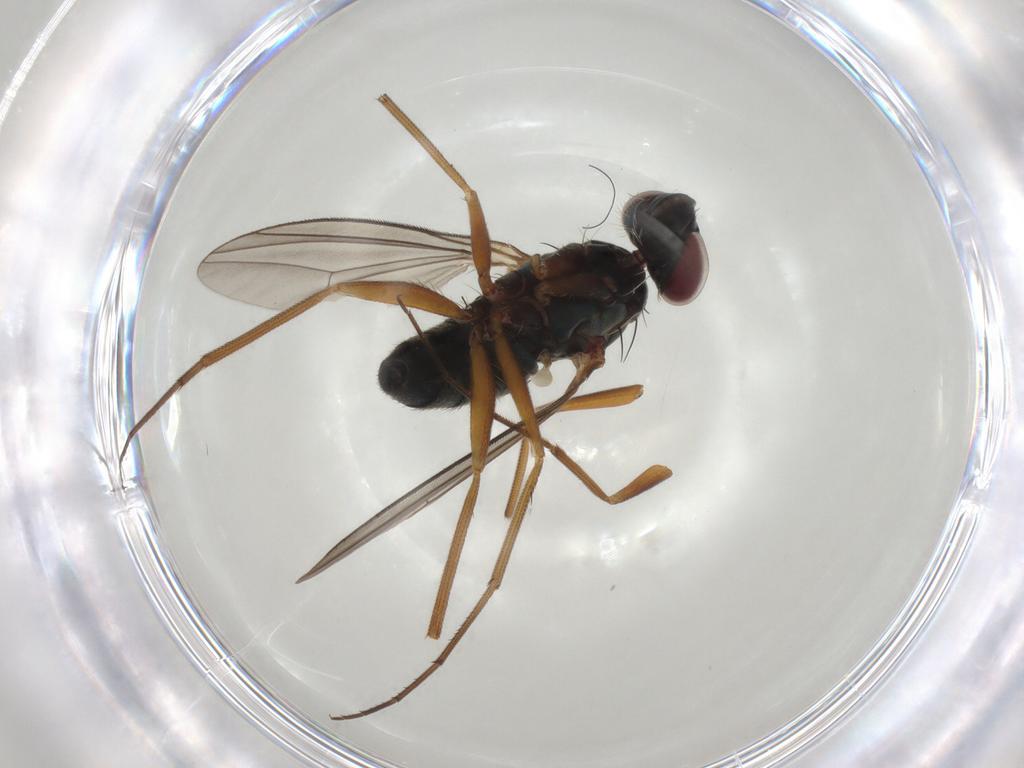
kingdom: Animalia
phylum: Arthropoda
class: Insecta
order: Diptera
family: Dolichopodidae
